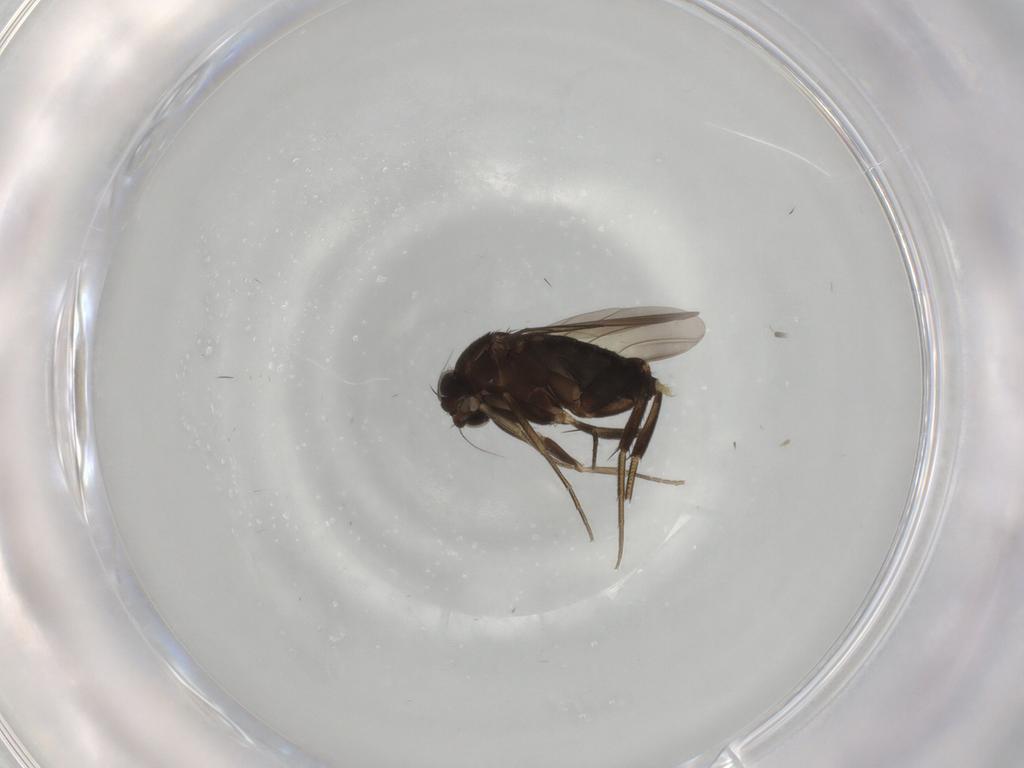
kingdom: Animalia
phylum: Arthropoda
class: Insecta
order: Diptera
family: Phoridae
